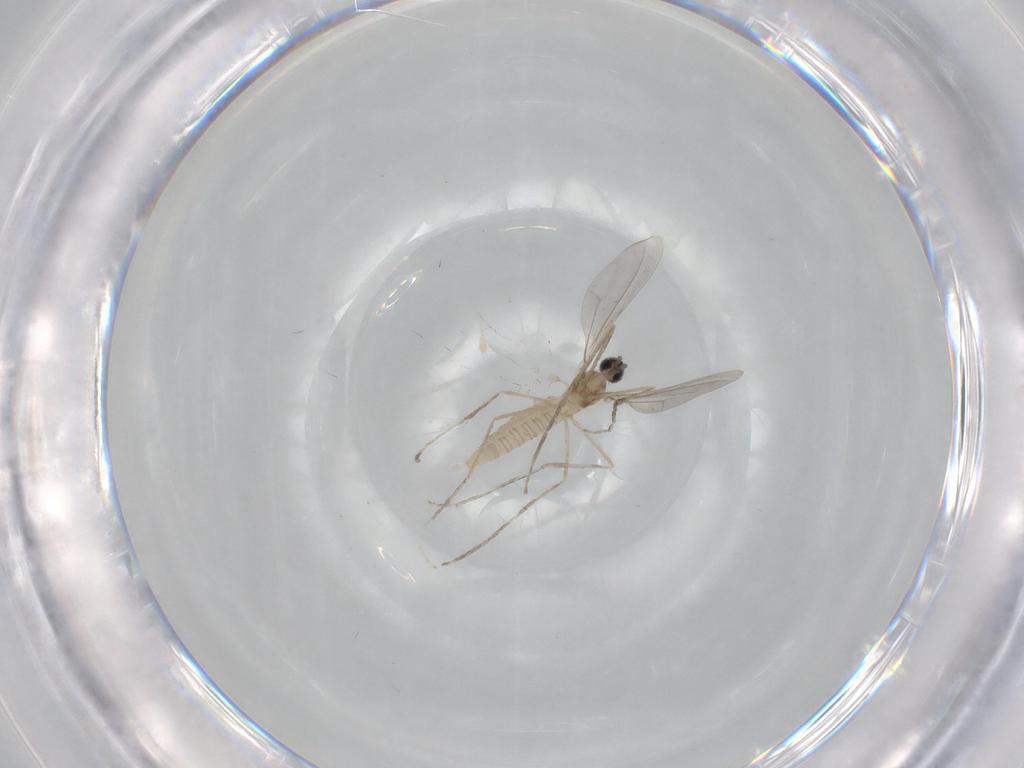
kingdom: Animalia
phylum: Arthropoda
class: Insecta
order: Diptera
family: Cecidomyiidae
